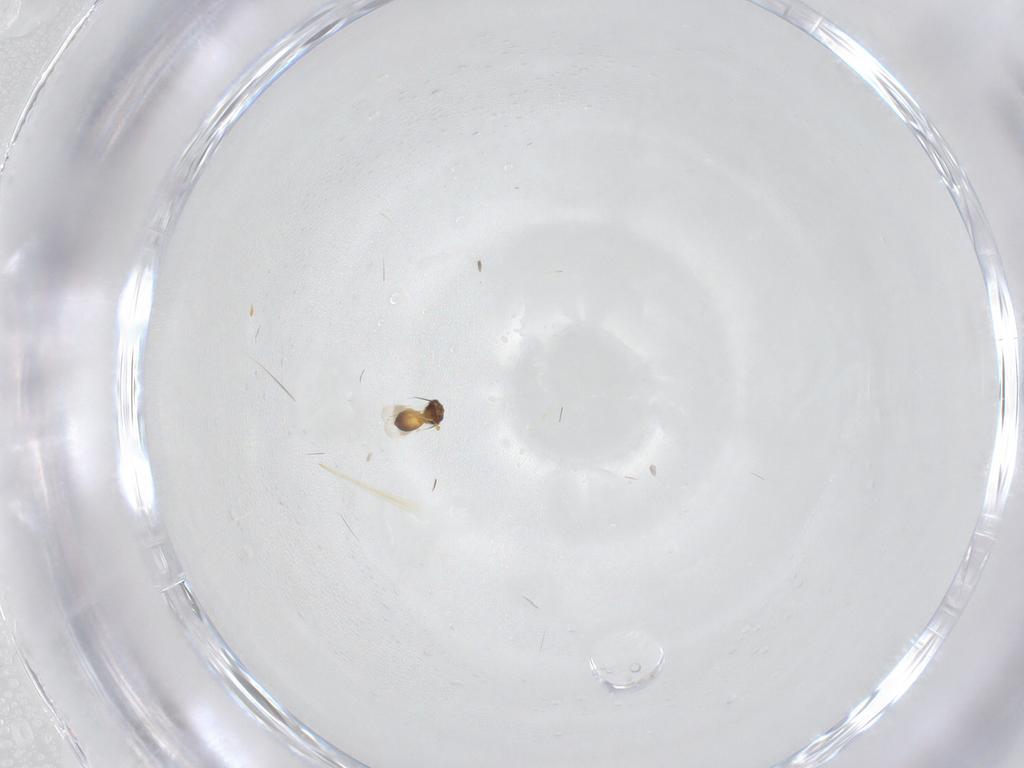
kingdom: Animalia
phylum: Arthropoda
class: Insecta
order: Hymenoptera
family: Platygastridae
